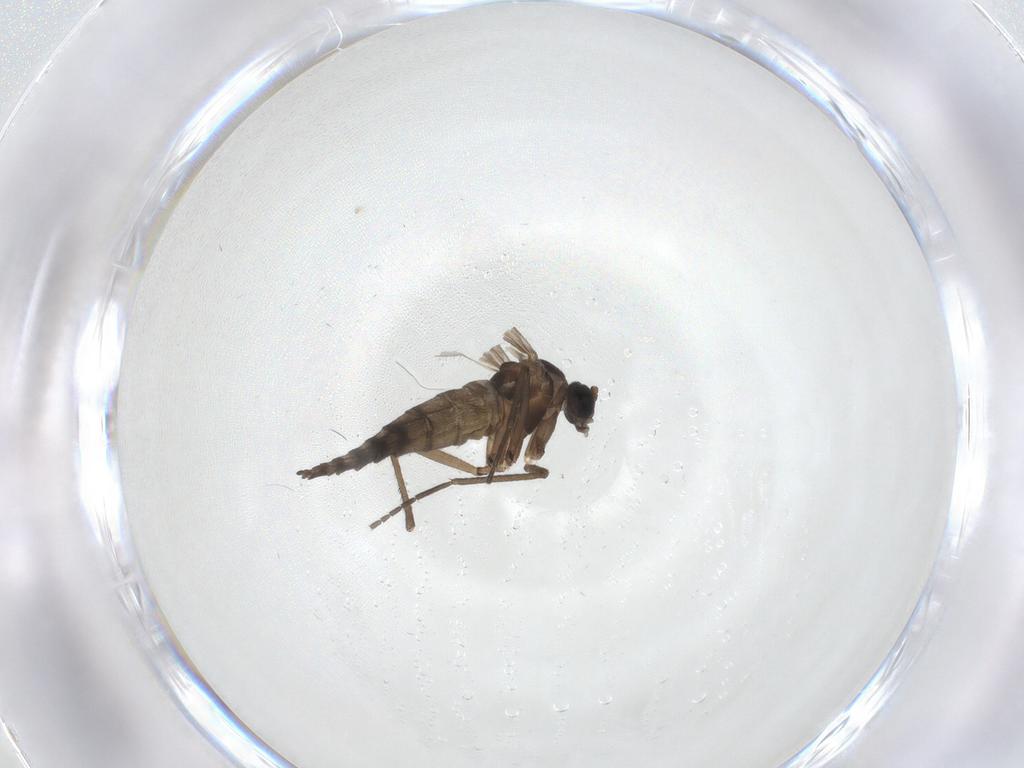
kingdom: Animalia
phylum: Arthropoda
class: Insecta
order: Diptera
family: Sciaridae
